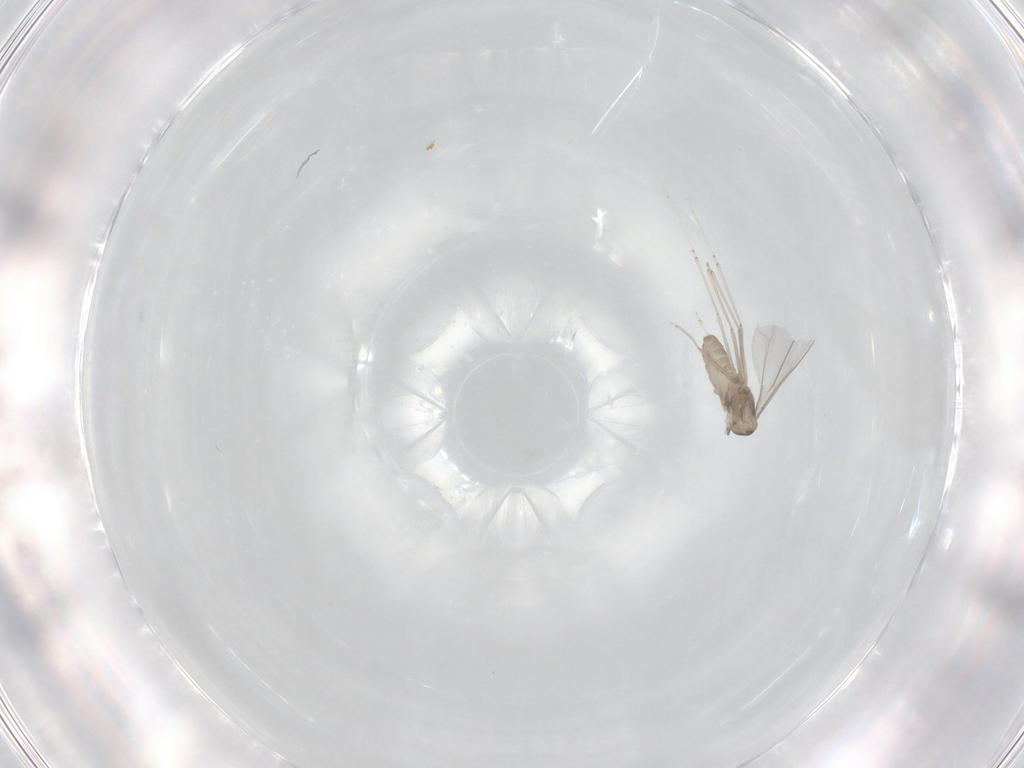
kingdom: Animalia
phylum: Arthropoda
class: Insecta
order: Diptera
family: Cecidomyiidae
